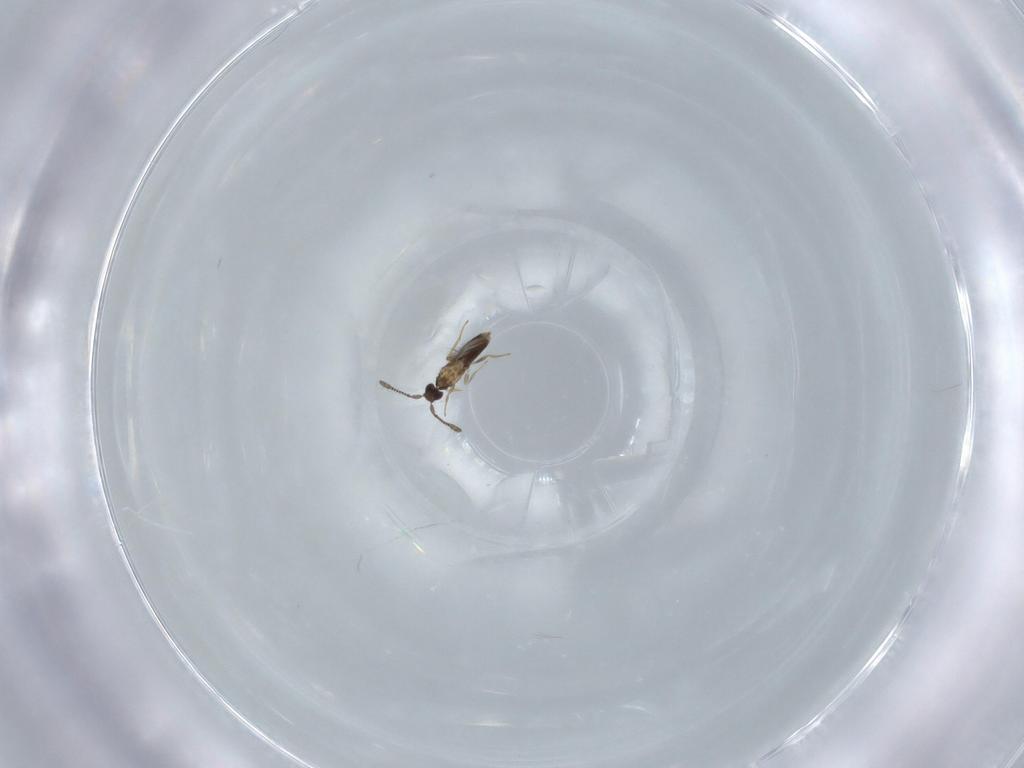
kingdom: Animalia
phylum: Arthropoda
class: Insecta
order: Hymenoptera
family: Mymaridae
